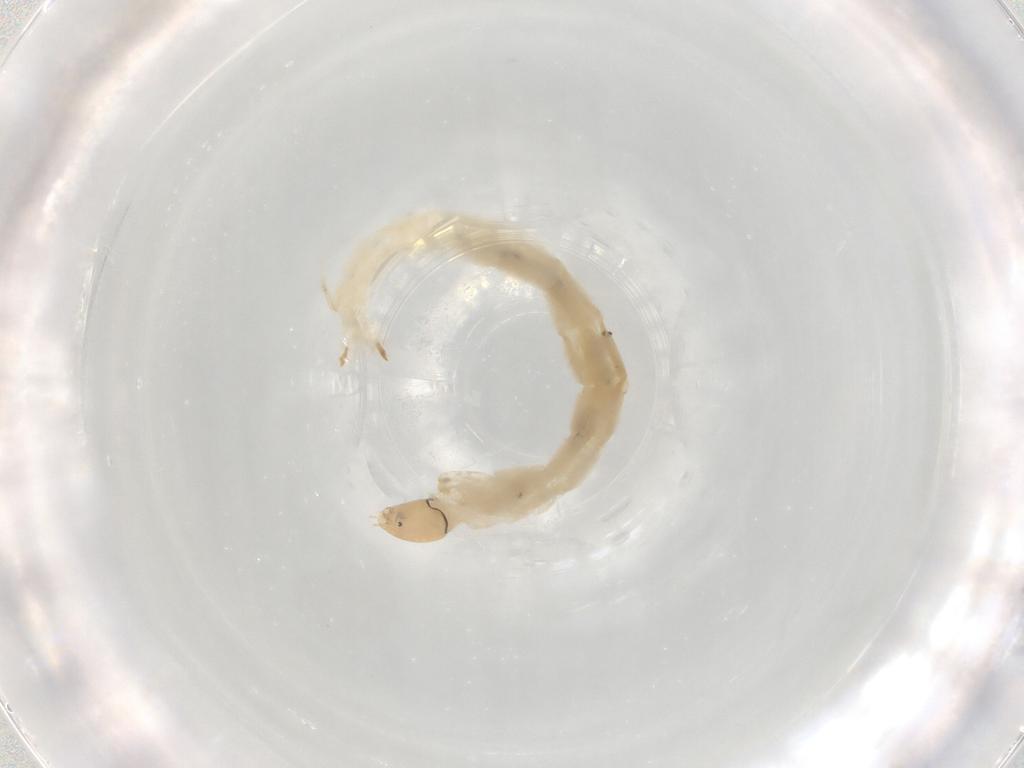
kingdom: Animalia
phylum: Arthropoda
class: Insecta
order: Diptera
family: Chironomidae
